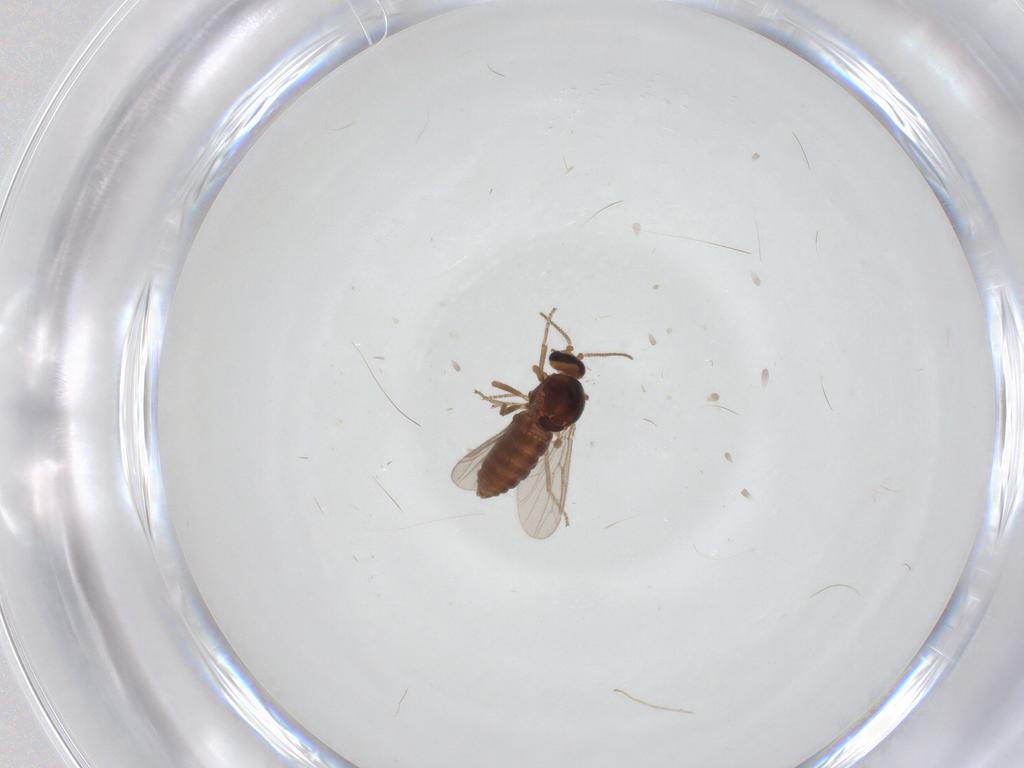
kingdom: Animalia
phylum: Arthropoda
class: Insecta
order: Diptera
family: Ceratopogonidae
